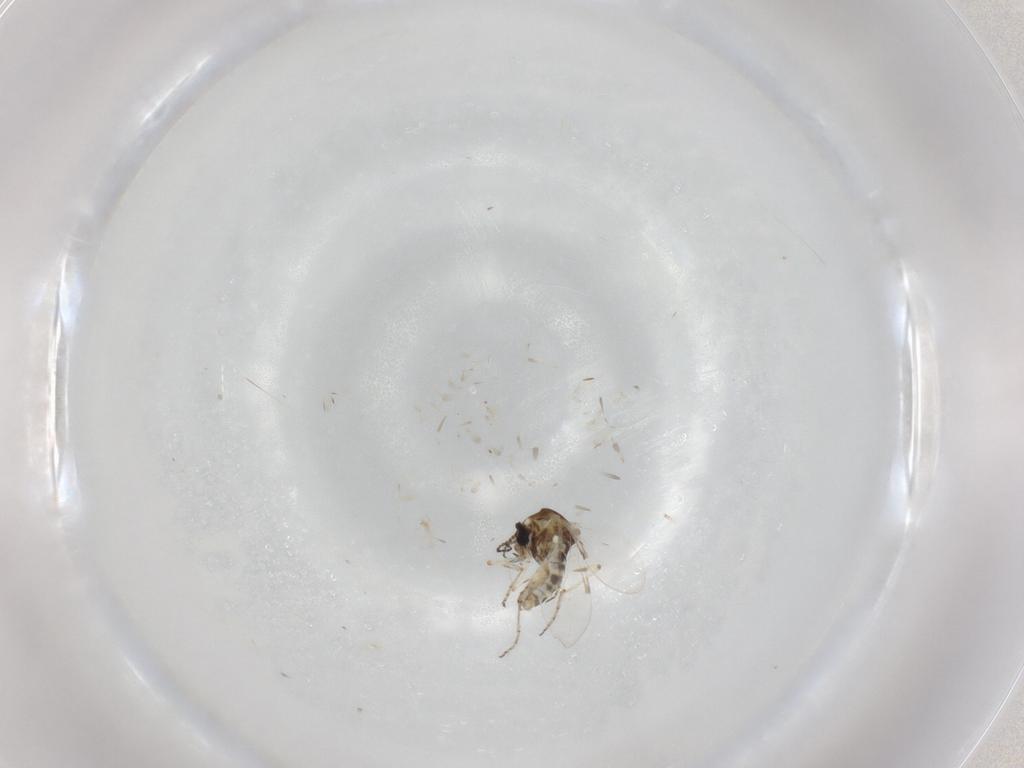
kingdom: Animalia
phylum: Arthropoda
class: Insecta
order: Diptera
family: Ceratopogonidae
